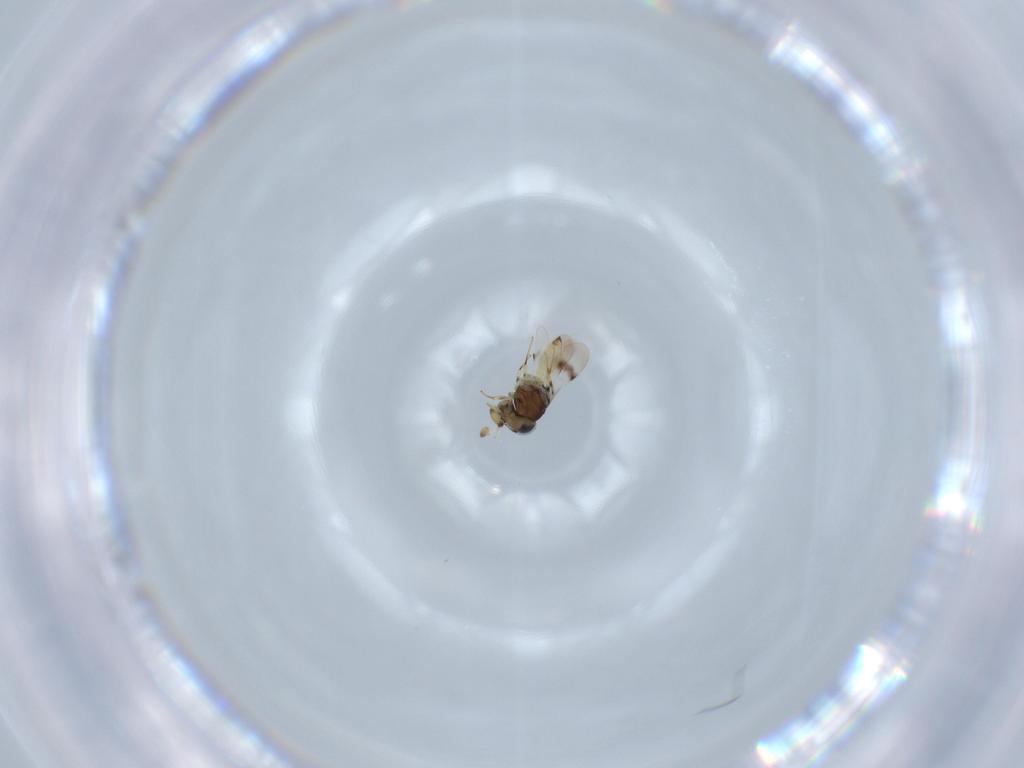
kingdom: Animalia
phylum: Arthropoda
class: Insecta
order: Hymenoptera
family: Scelionidae
